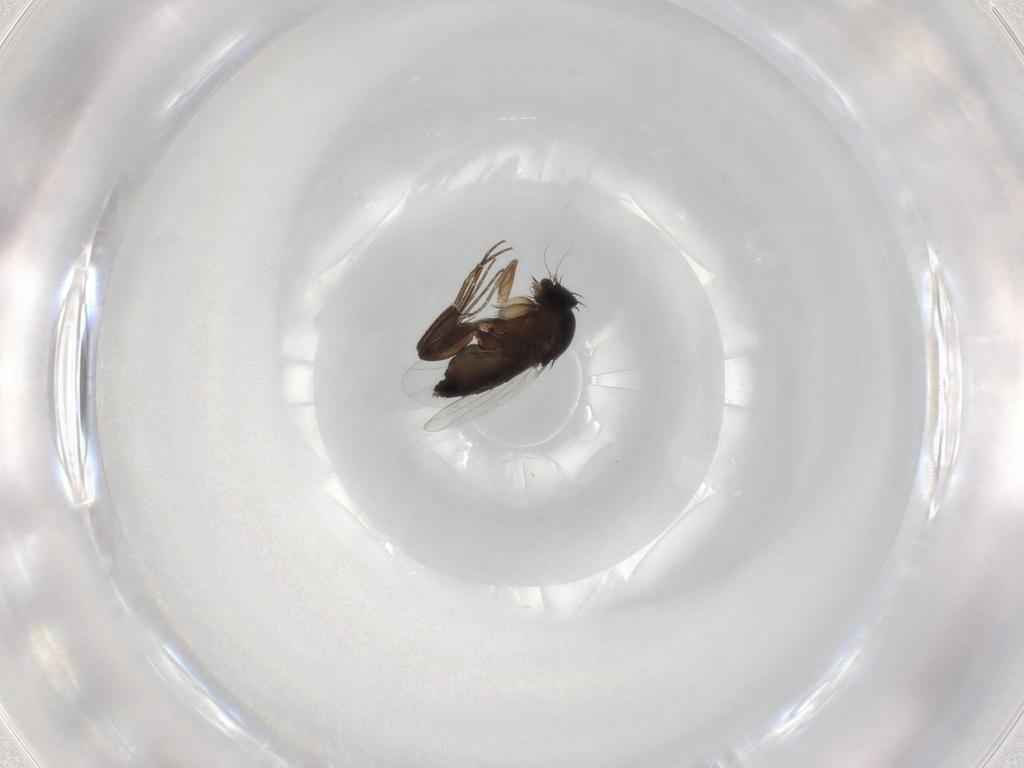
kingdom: Animalia
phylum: Arthropoda
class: Insecta
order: Diptera
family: Phoridae
